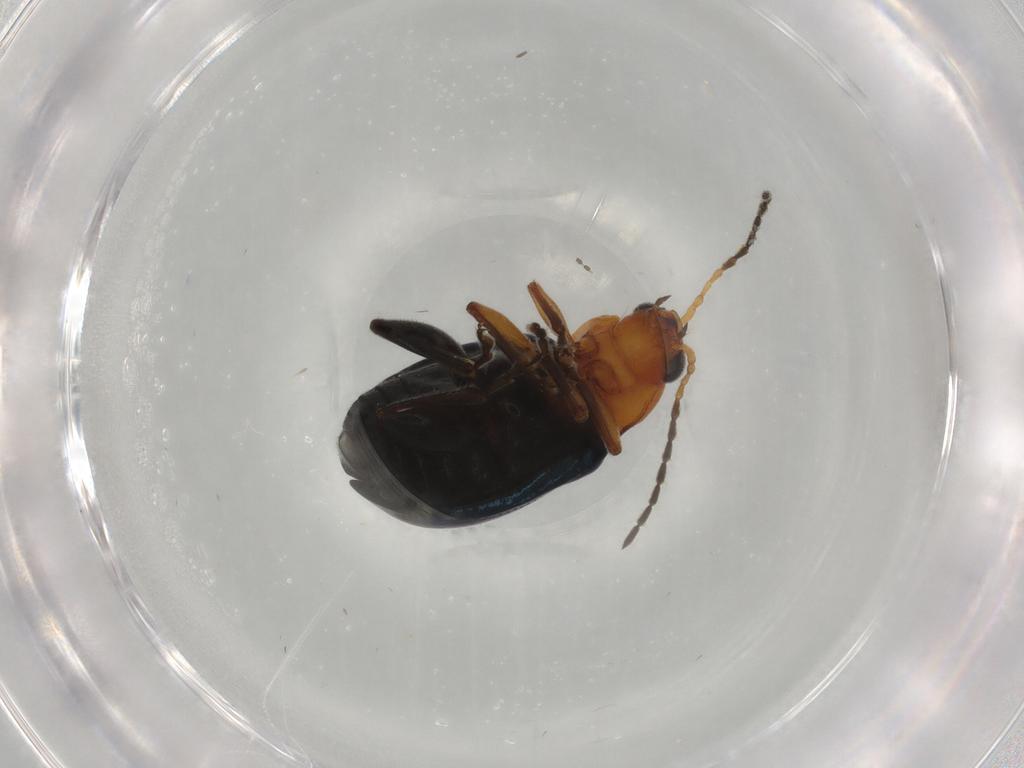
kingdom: Animalia
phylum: Arthropoda
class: Insecta
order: Coleoptera
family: Chrysomelidae
